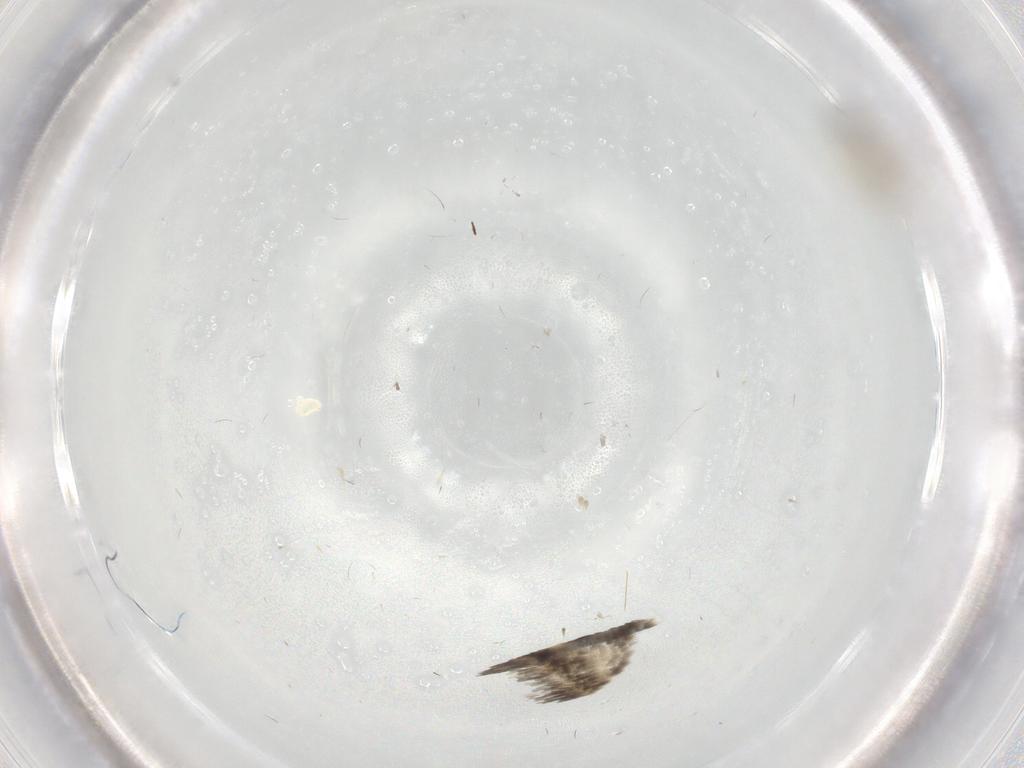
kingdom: Animalia
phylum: Arthropoda
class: Insecta
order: Diptera
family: Cecidomyiidae
